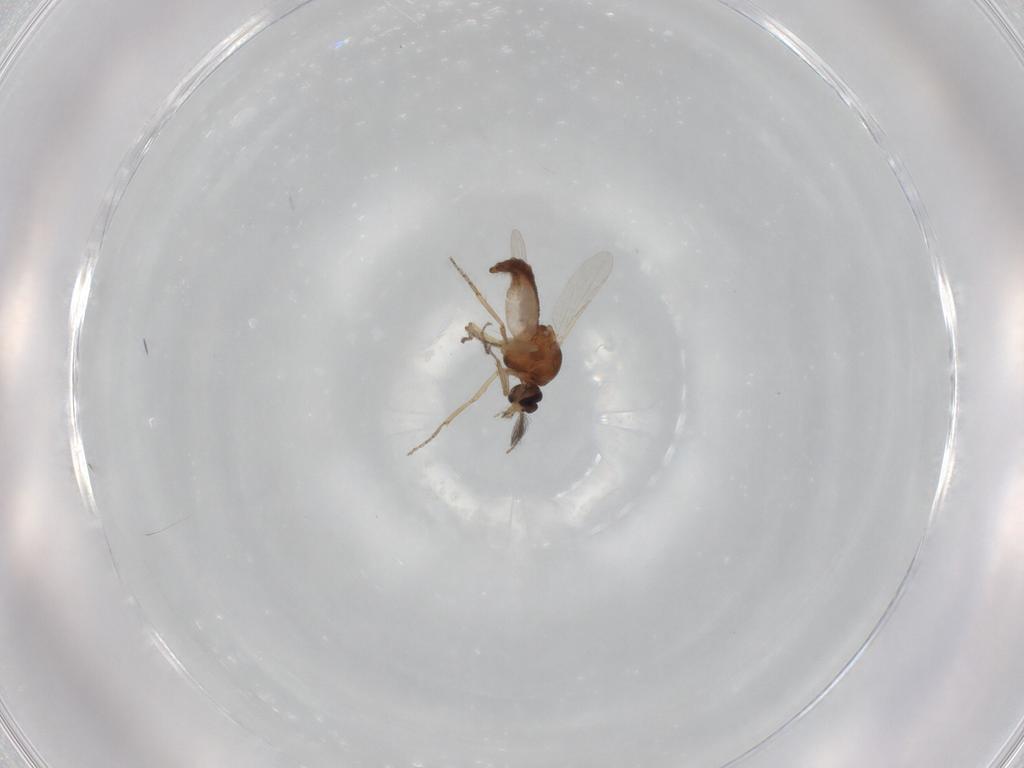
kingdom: Animalia
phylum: Arthropoda
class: Insecta
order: Diptera
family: Ceratopogonidae
